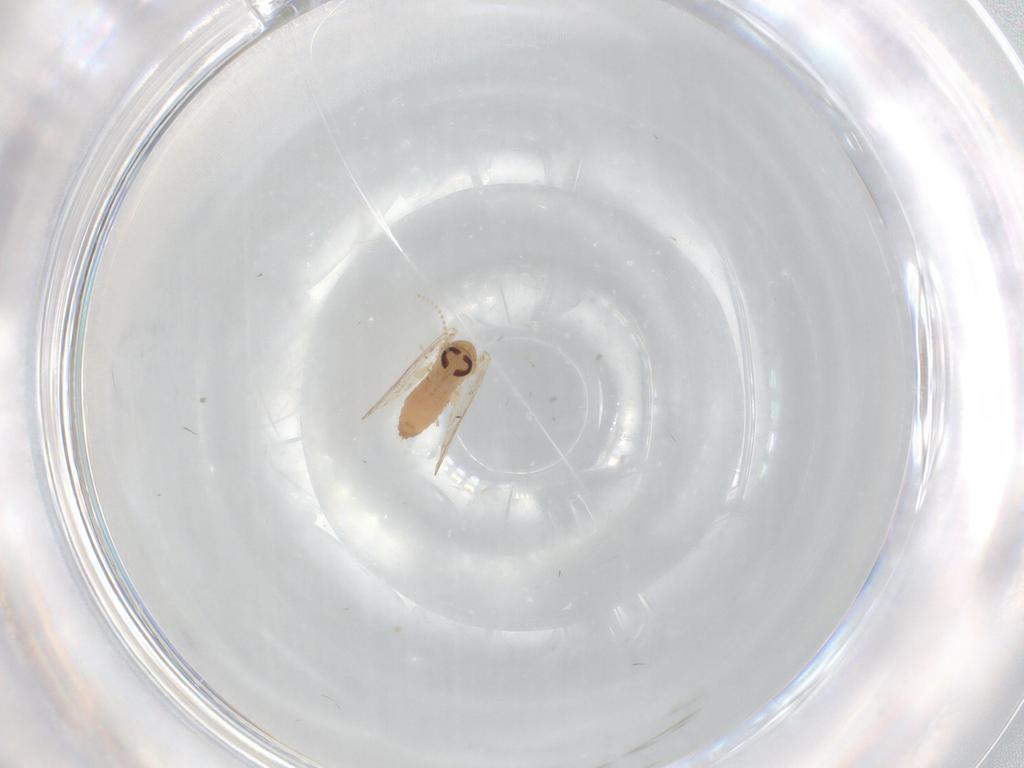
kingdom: Animalia
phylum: Arthropoda
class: Insecta
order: Diptera
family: Psychodidae
